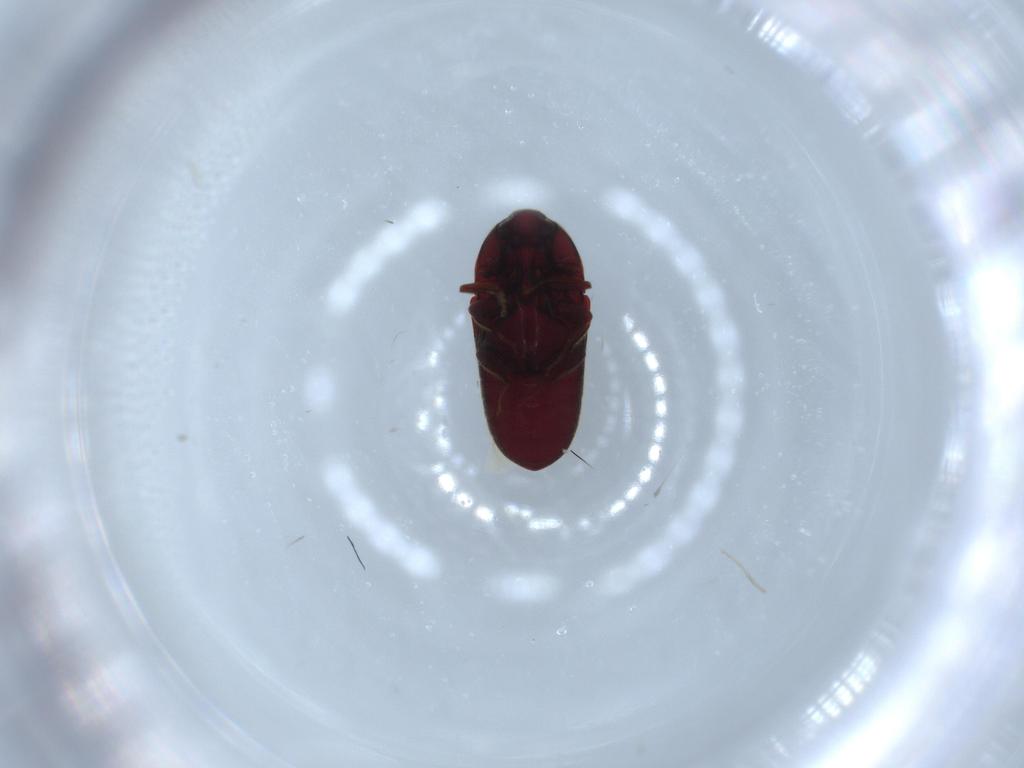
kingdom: Animalia
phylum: Arthropoda
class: Insecta
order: Coleoptera
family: Throscidae
